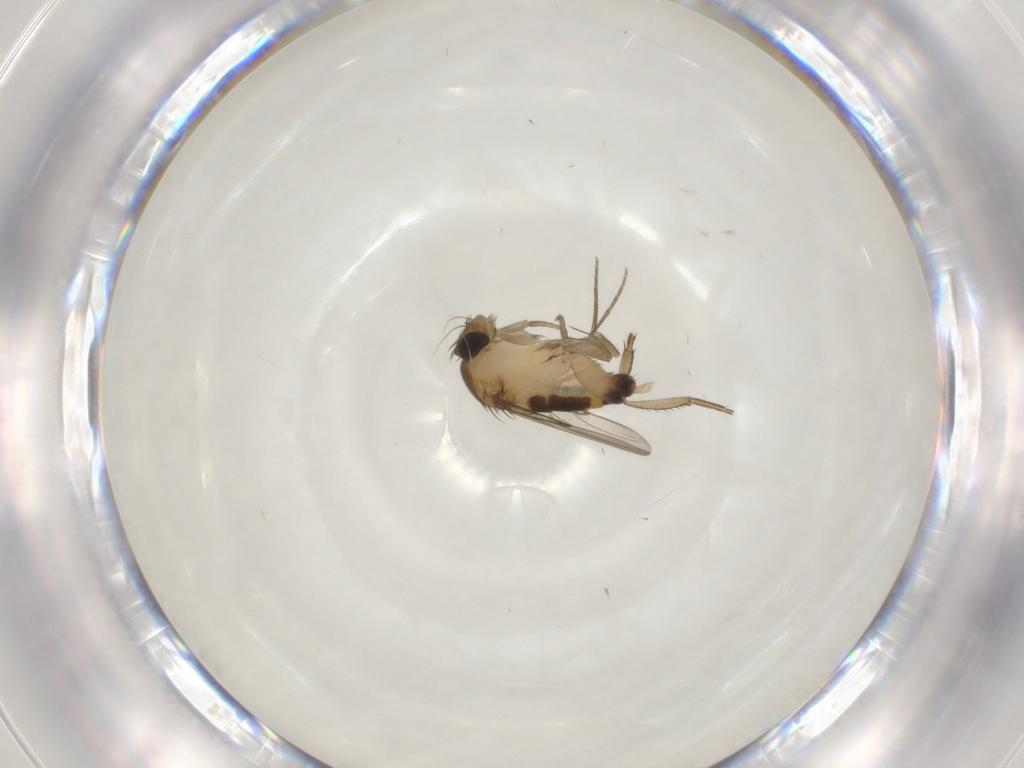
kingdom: Animalia
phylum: Arthropoda
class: Insecta
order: Diptera
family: Phoridae
